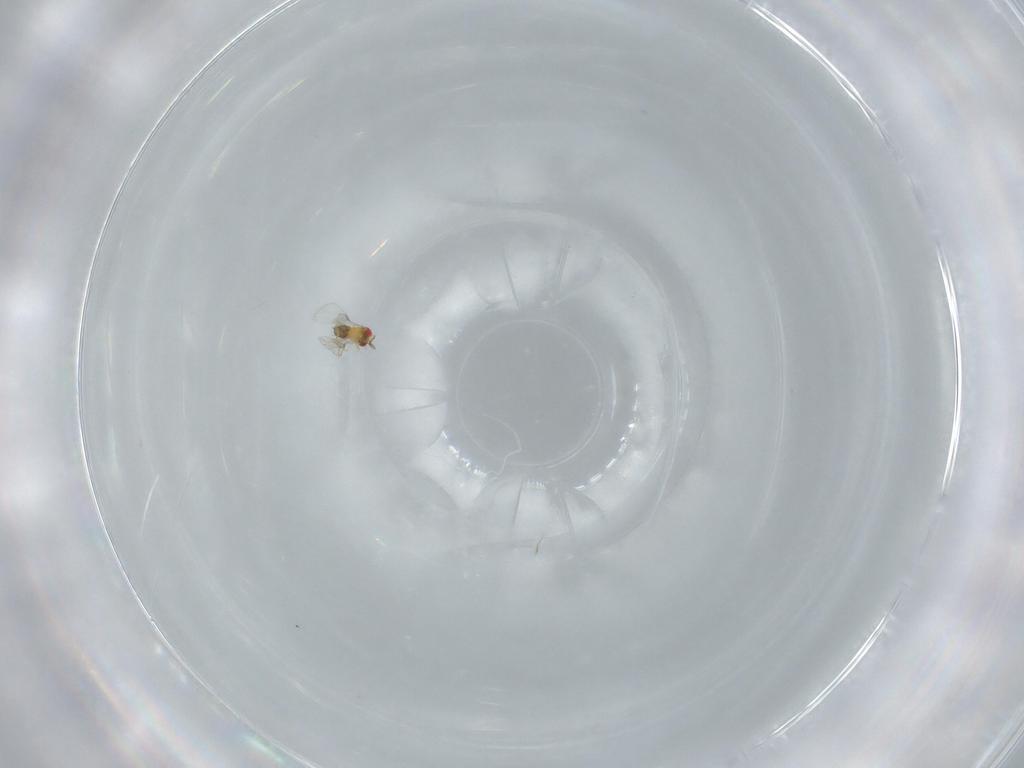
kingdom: Animalia
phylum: Arthropoda
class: Insecta
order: Hymenoptera
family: Trichogrammatidae
